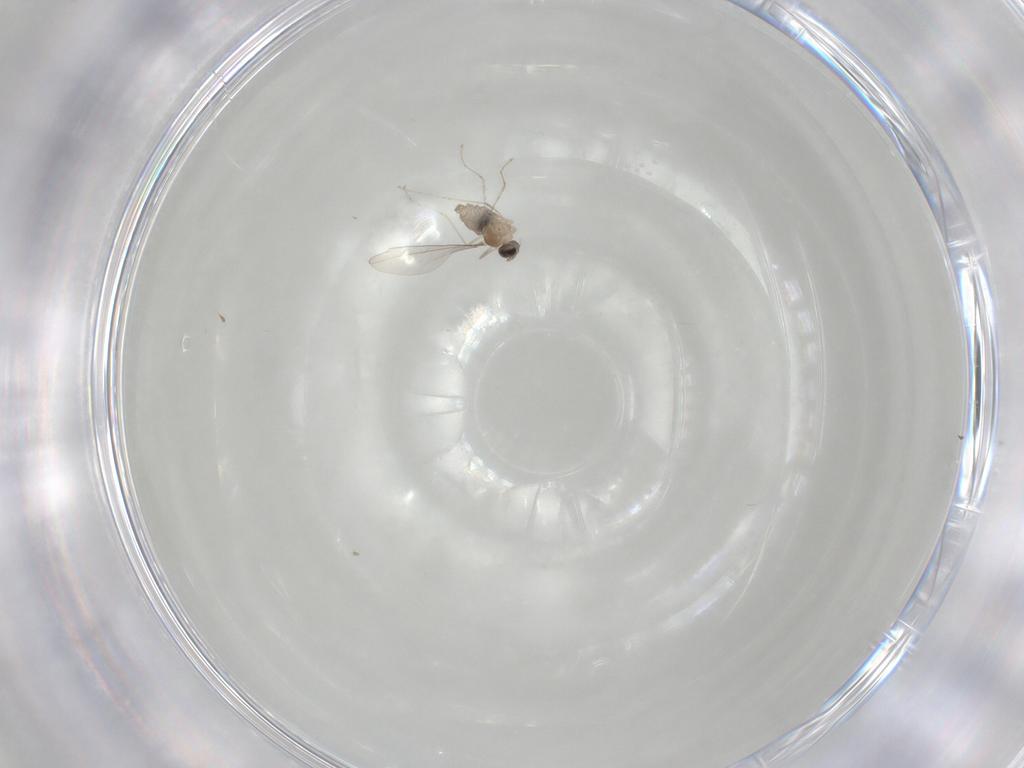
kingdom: Animalia
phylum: Arthropoda
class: Insecta
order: Diptera
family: Cecidomyiidae
